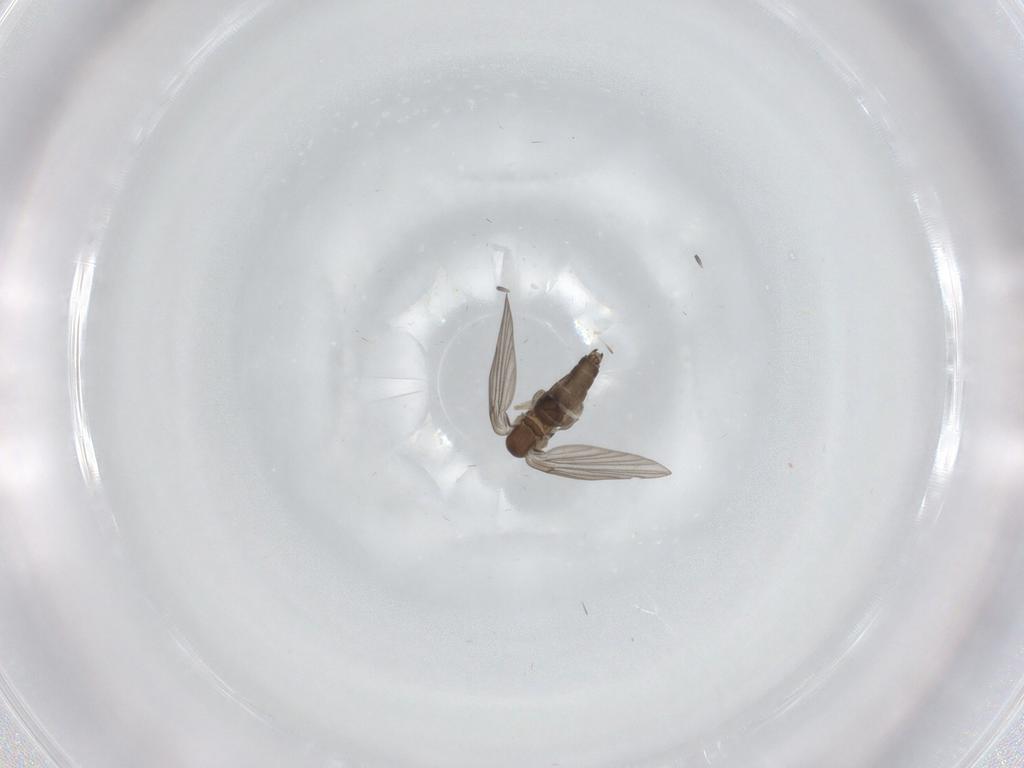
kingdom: Animalia
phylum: Arthropoda
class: Insecta
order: Diptera
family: Psychodidae
